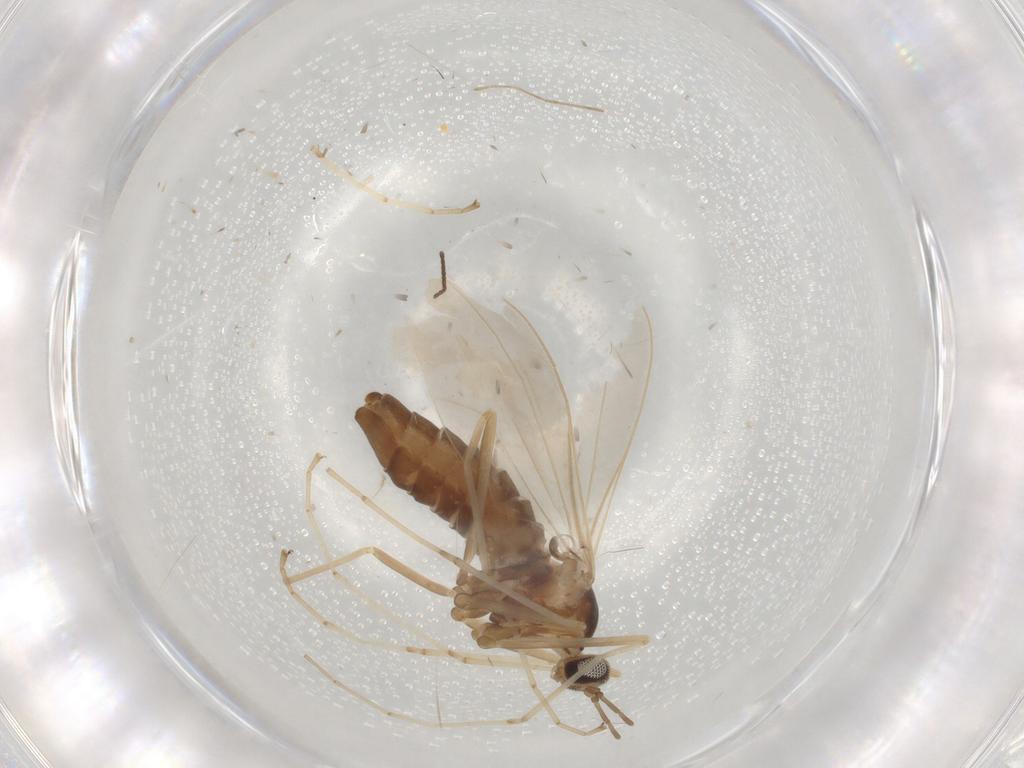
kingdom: Animalia
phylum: Arthropoda
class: Insecta
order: Diptera
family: Cecidomyiidae
